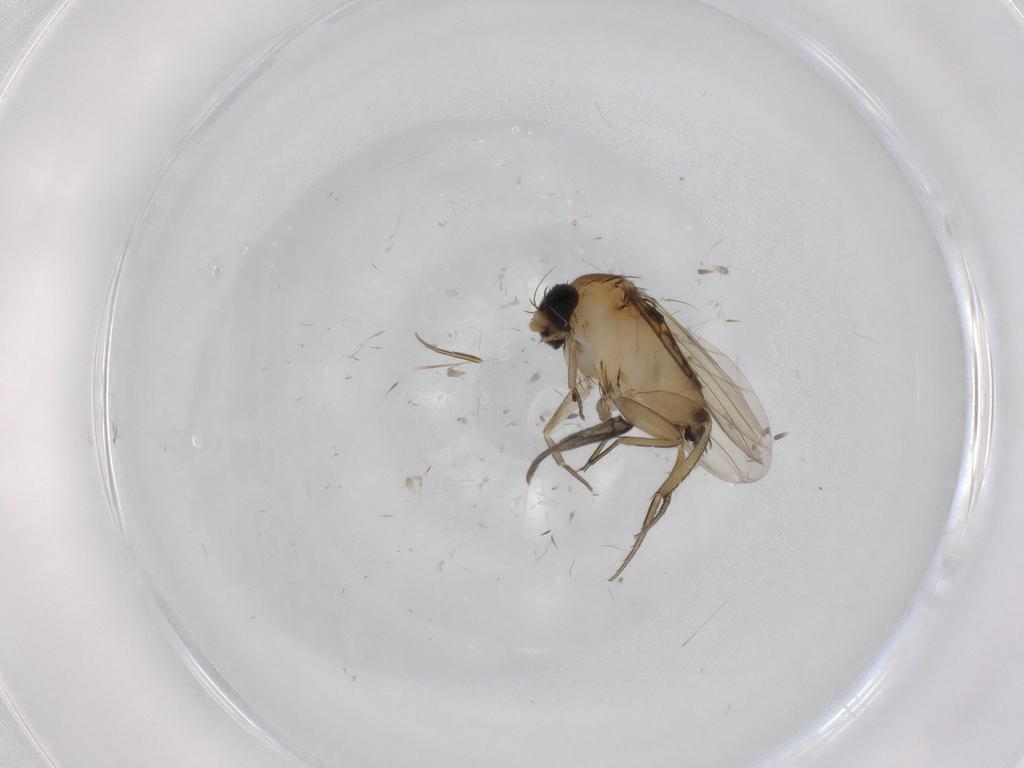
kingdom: Animalia
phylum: Arthropoda
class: Insecta
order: Diptera
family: Phoridae
